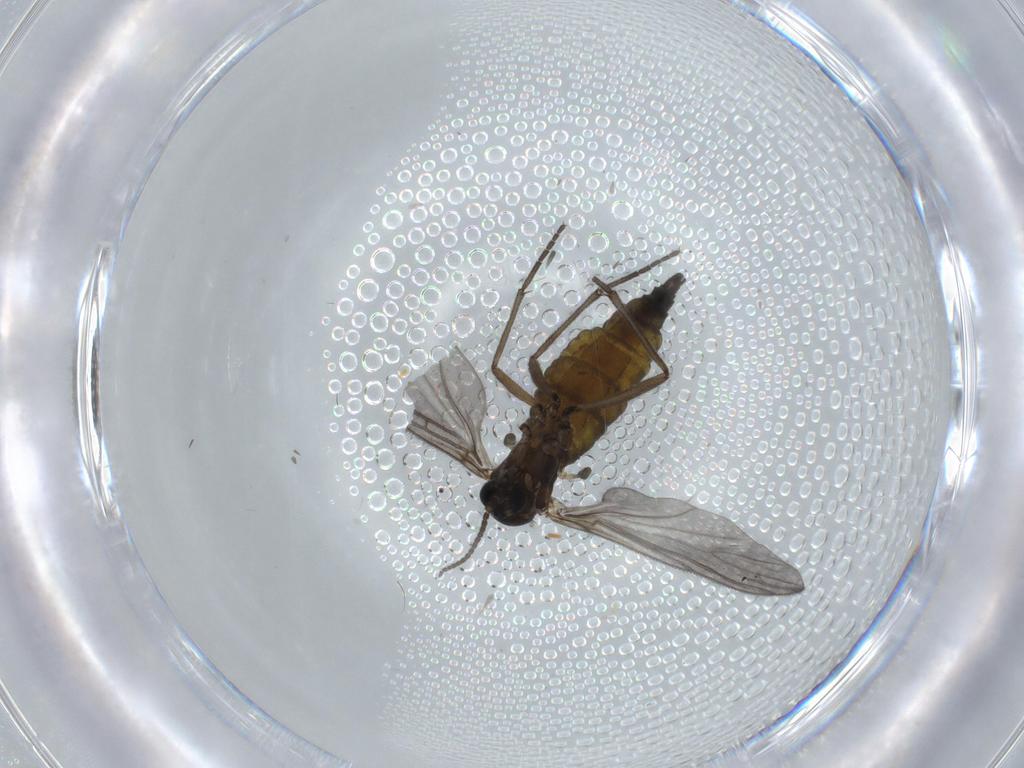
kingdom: Animalia
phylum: Arthropoda
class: Insecta
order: Diptera
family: Sciaridae
